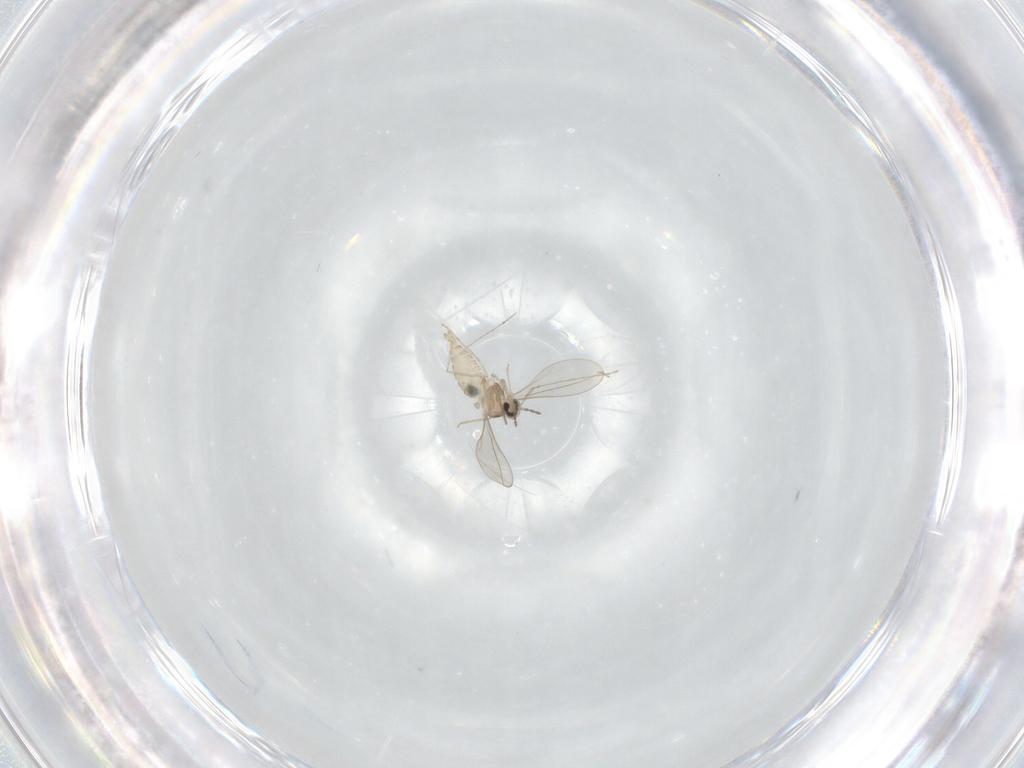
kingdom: Animalia
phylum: Arthropoda
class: Insecta
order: Diptera
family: Cecidomyiidae
